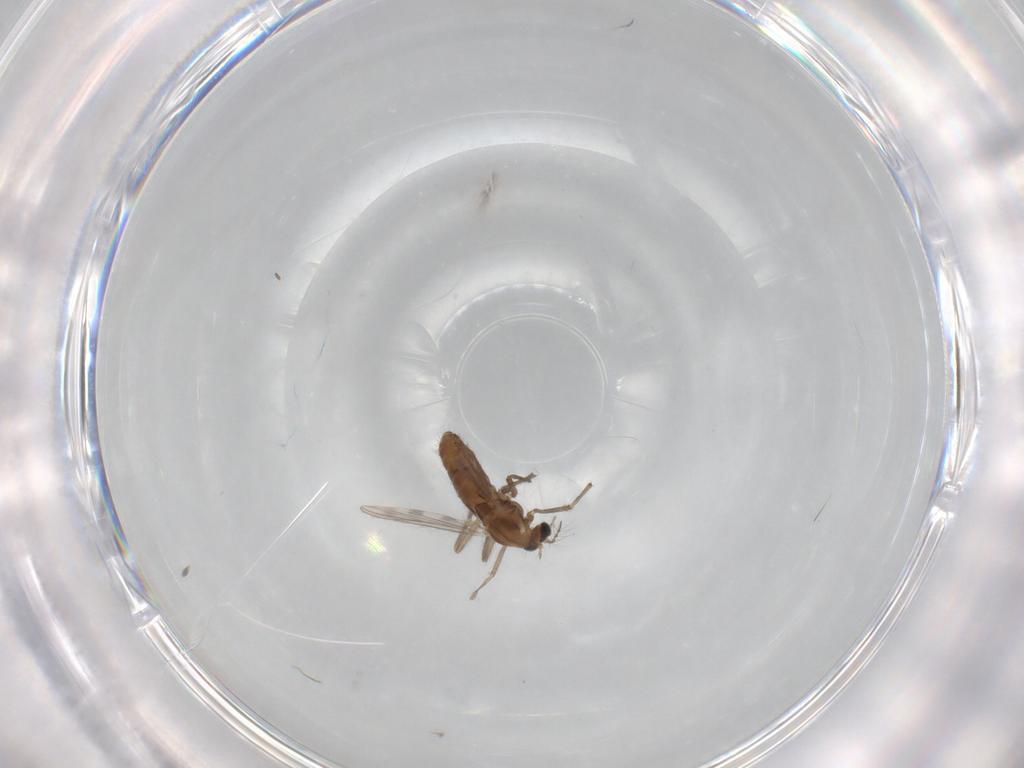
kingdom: Animalia
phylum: Arthropoda
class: Insecta
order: Diptera
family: Chironomidae
